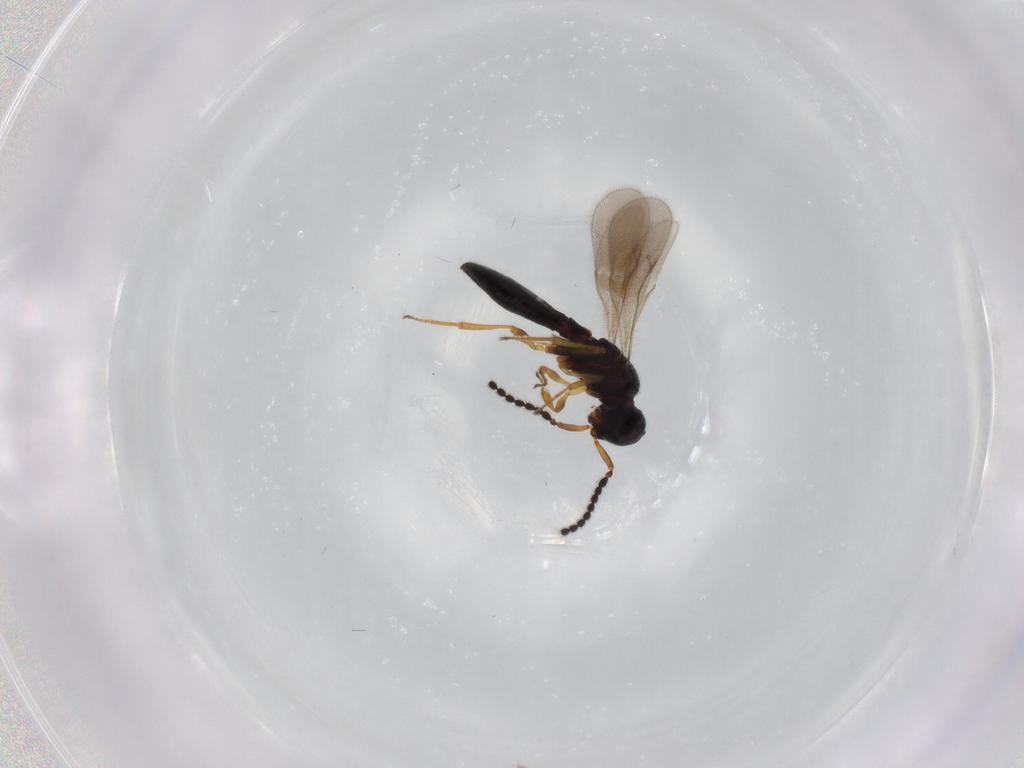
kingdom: Animalia
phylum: Arthropoda
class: Insecta
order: Hymenoptera
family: Scelionidae
